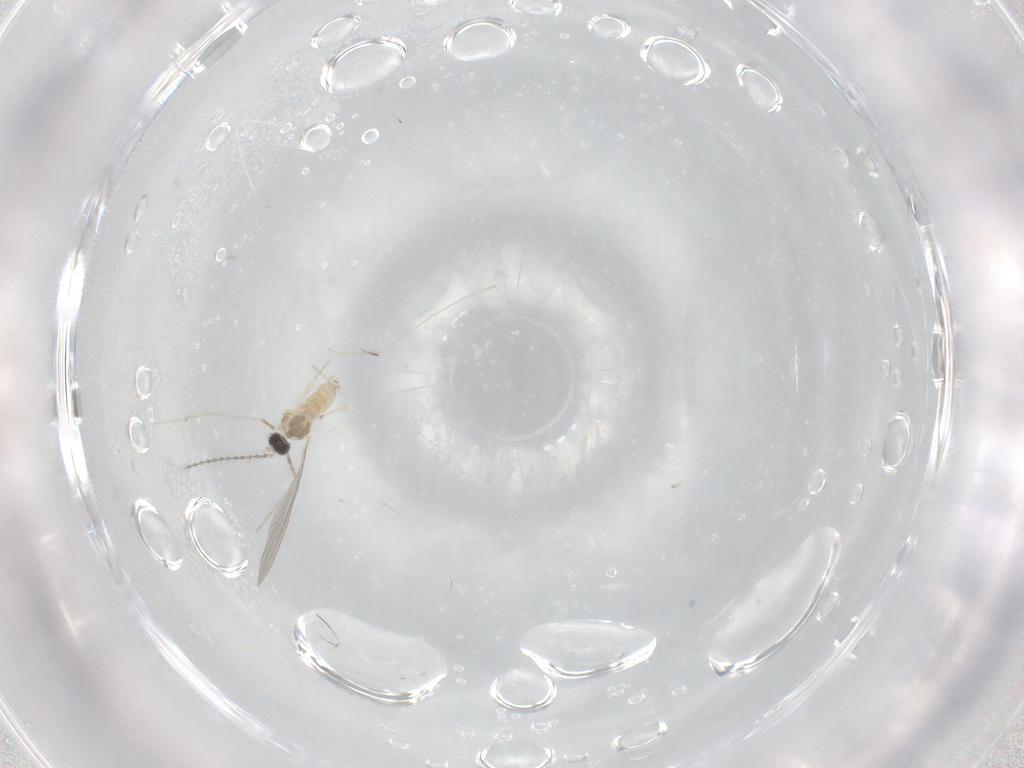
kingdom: Animalia
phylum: Arthropoda
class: Insecta
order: Diptera
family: Cecidomyiidae
